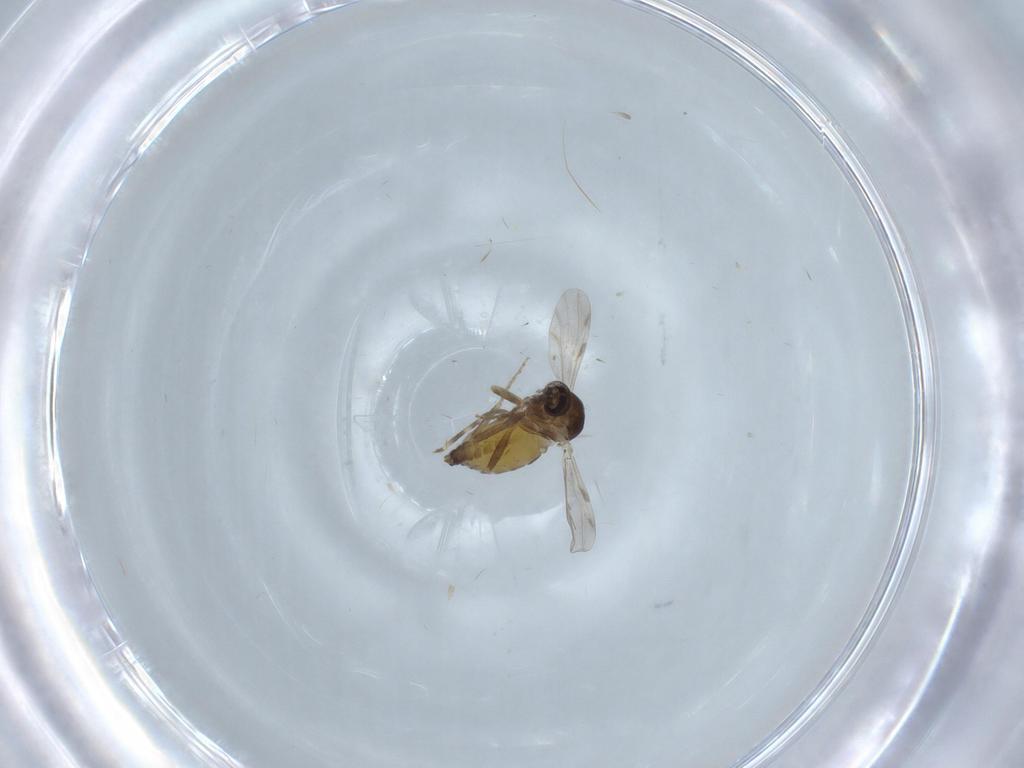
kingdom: Animalia
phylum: Arthropoda
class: Insecta
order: Diptera
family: Ceratopogonidae
